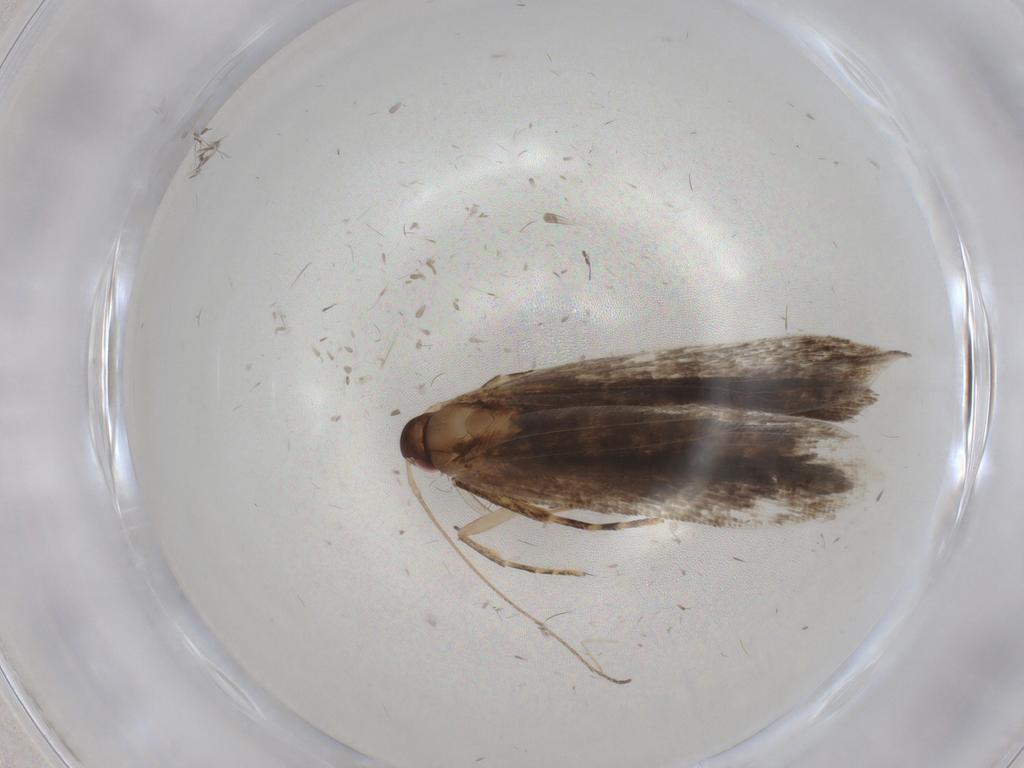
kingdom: Animalia
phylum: Arthropoda
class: Insecta
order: Lepidoptera
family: Gelechiidae
